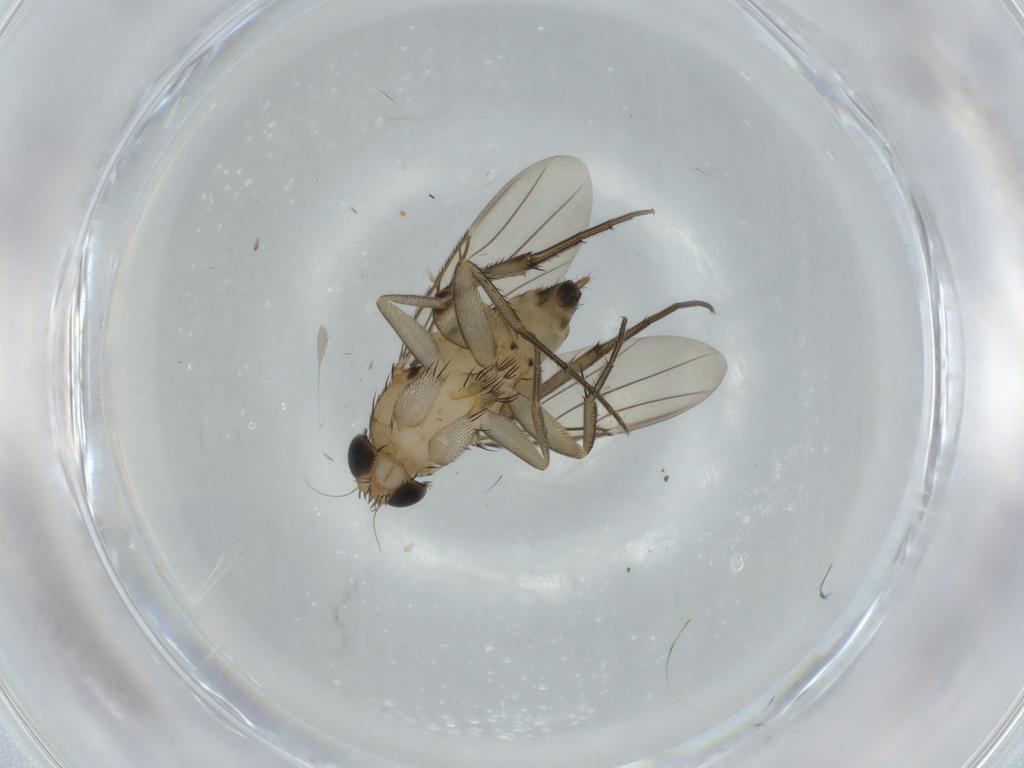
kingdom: Animalia
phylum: Arthropoda
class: Insecta
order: Diptera
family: Phoridae
